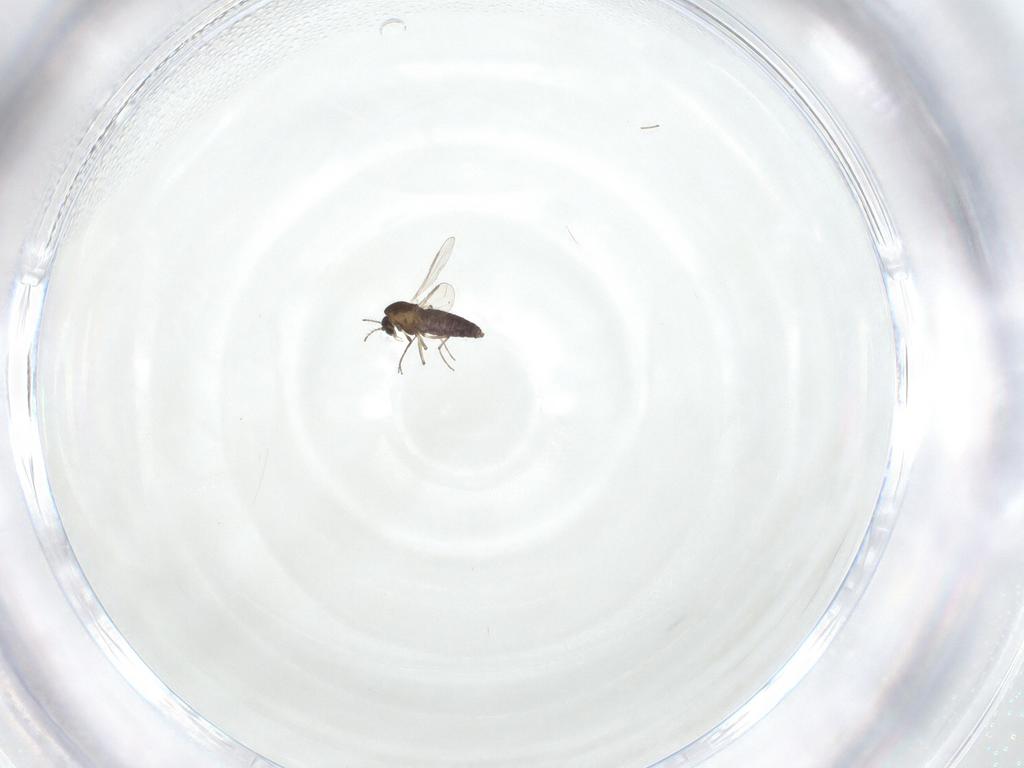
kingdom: Animalia
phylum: Arthropoda
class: Insecta
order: Diptera
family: Chironomidae
